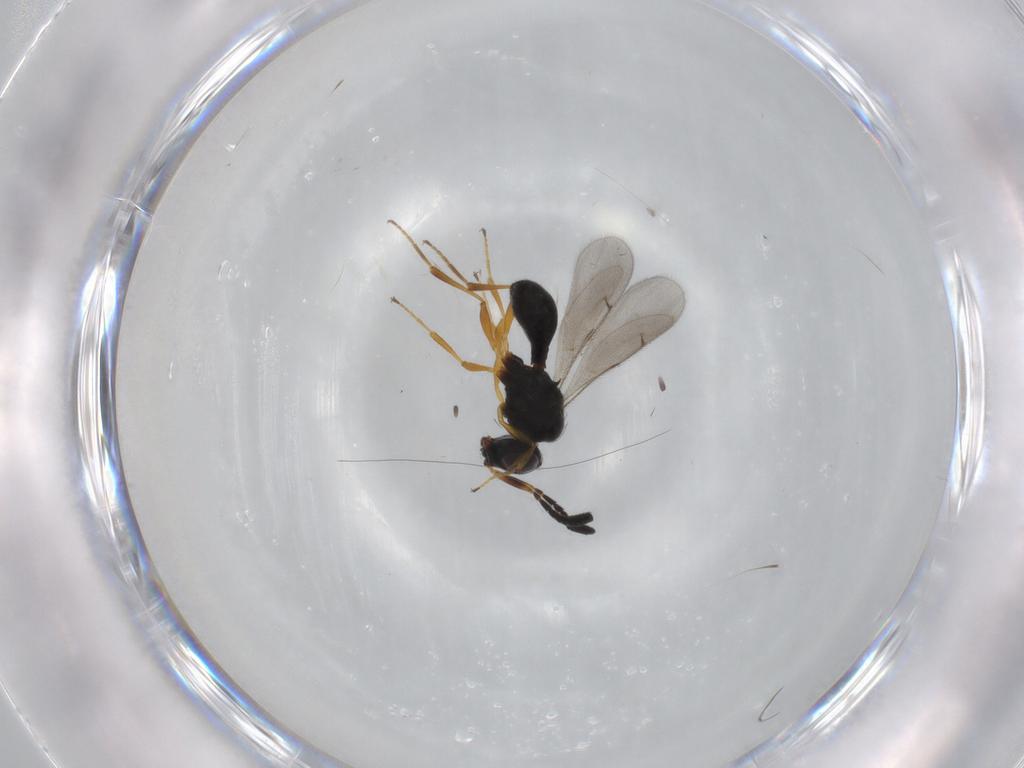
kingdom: Animalia
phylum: Arthropoda
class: Insecta
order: Hymenoptera
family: Scelionidae
